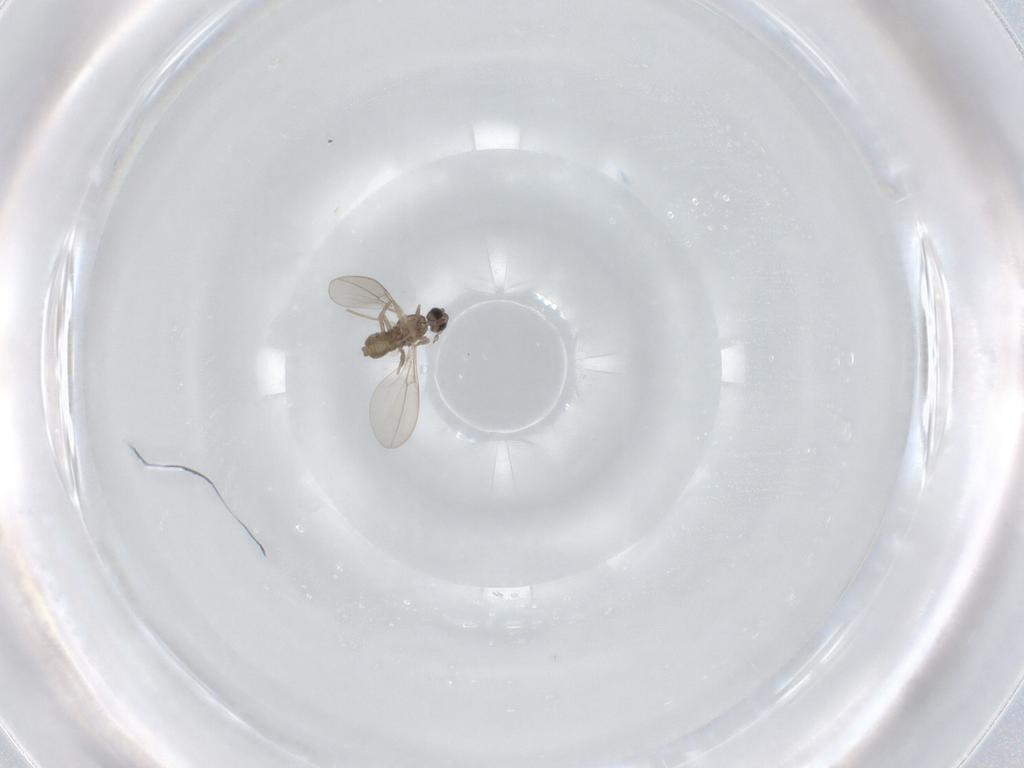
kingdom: Animalia
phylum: Arthropoda
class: Insecta
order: Diptera
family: Cecidomyiidae
